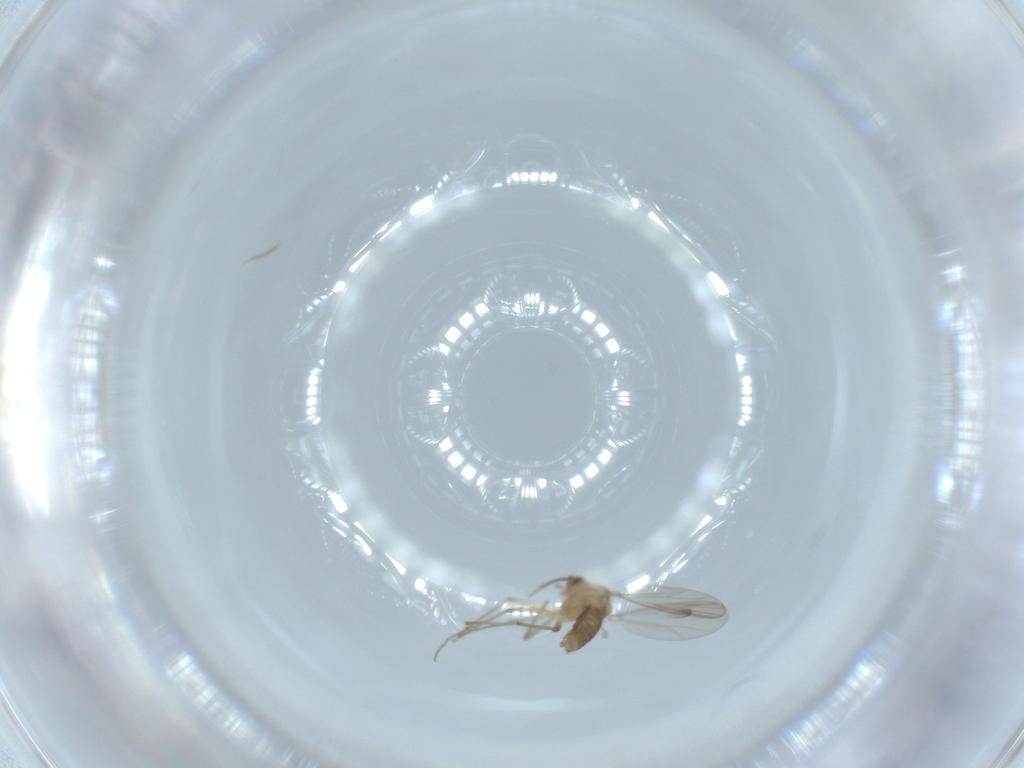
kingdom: Animalia
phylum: Arthropoda
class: Insecta
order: Diptera
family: Chironomidae
